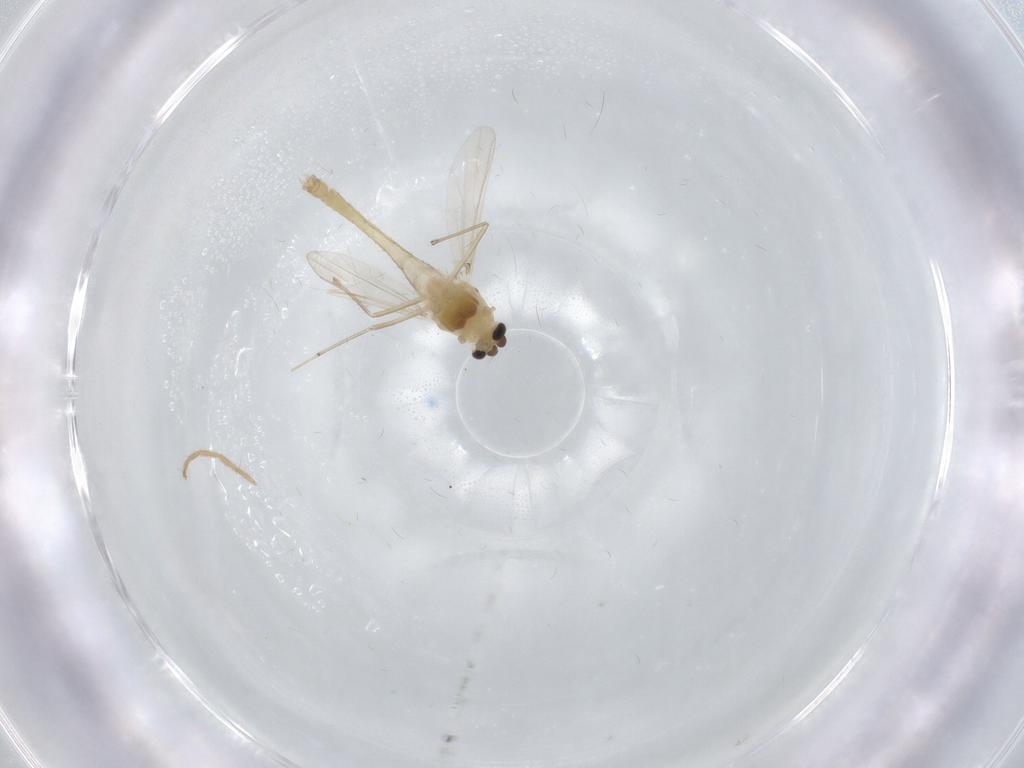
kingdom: Animalia
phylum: Arthropoda
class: Insecta
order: Diptera
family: Chironomidae
